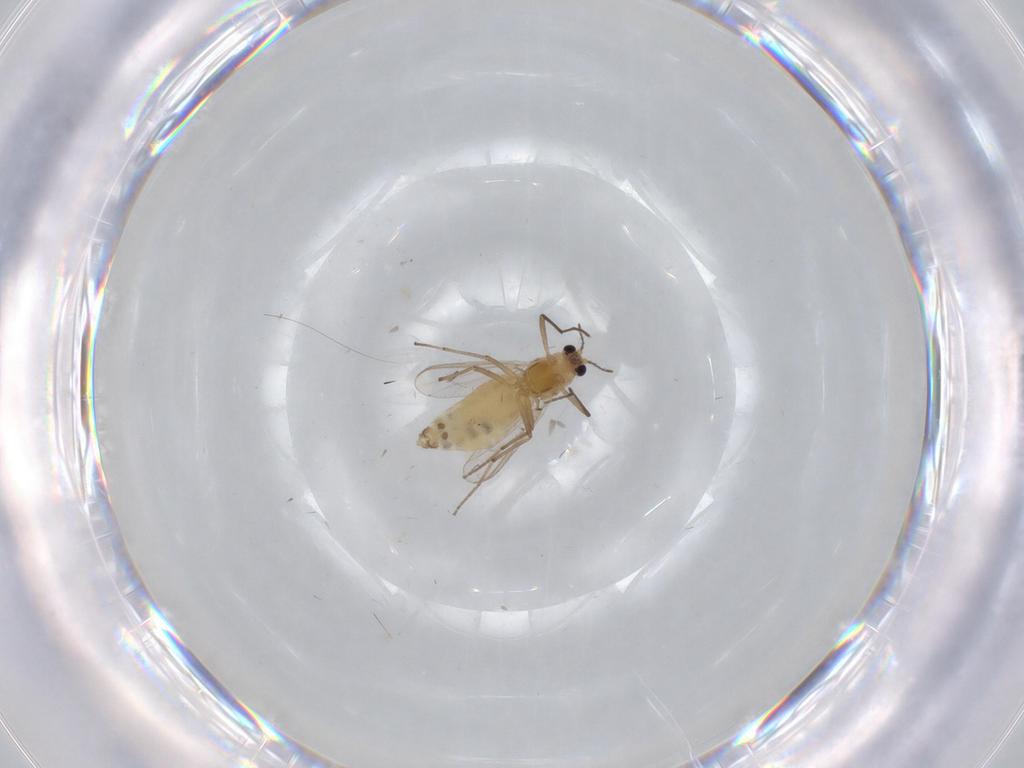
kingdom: Animalia
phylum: Arthropoda
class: Insecta
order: Diptera
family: Chironomidae
